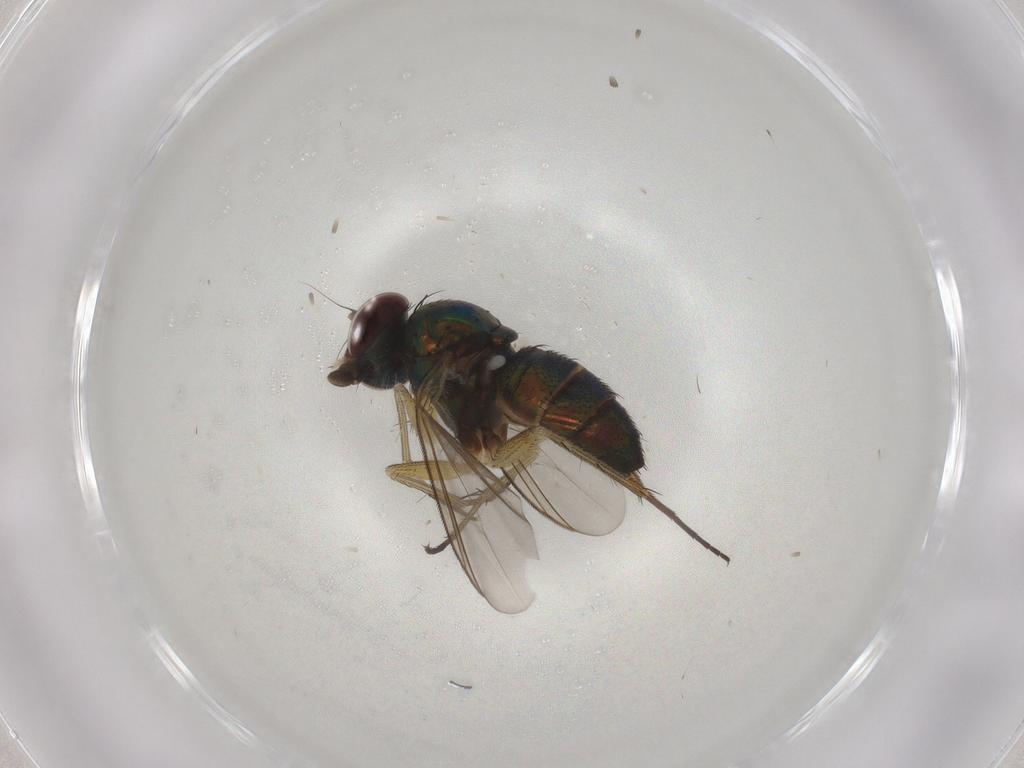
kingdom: Animalia
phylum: Arthropoda
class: Insecta
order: Diptera
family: Dolichopodidae
